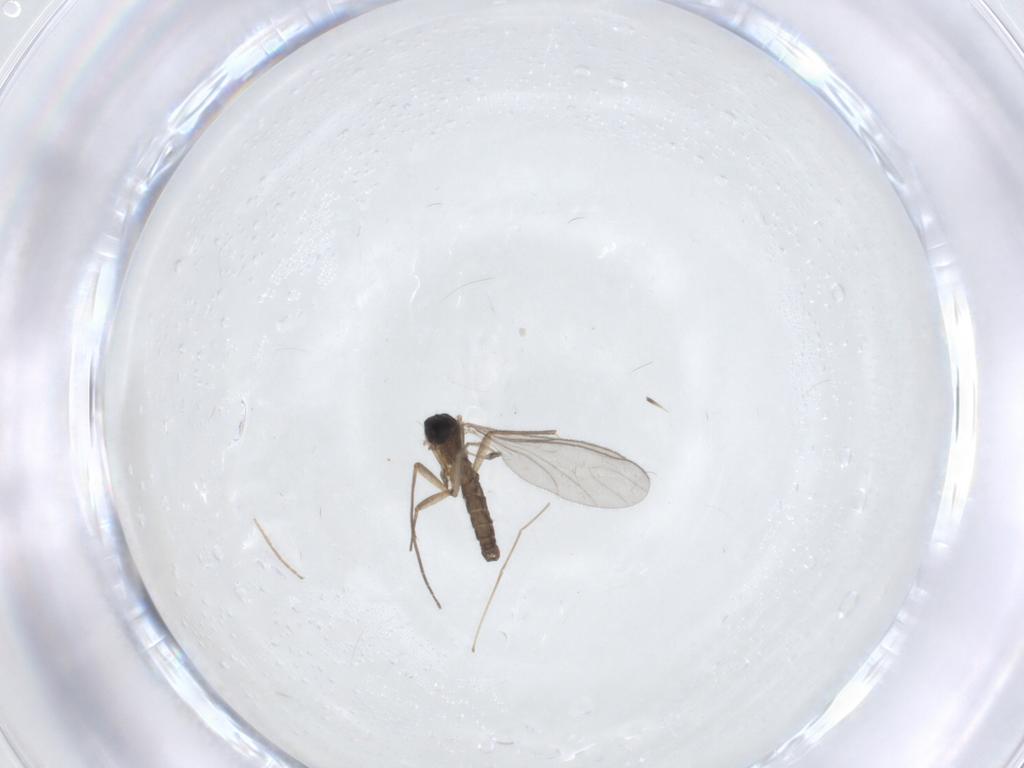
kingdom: Animalia
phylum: Arthropoda
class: Insecta
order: Diptera
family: Sciaridae
